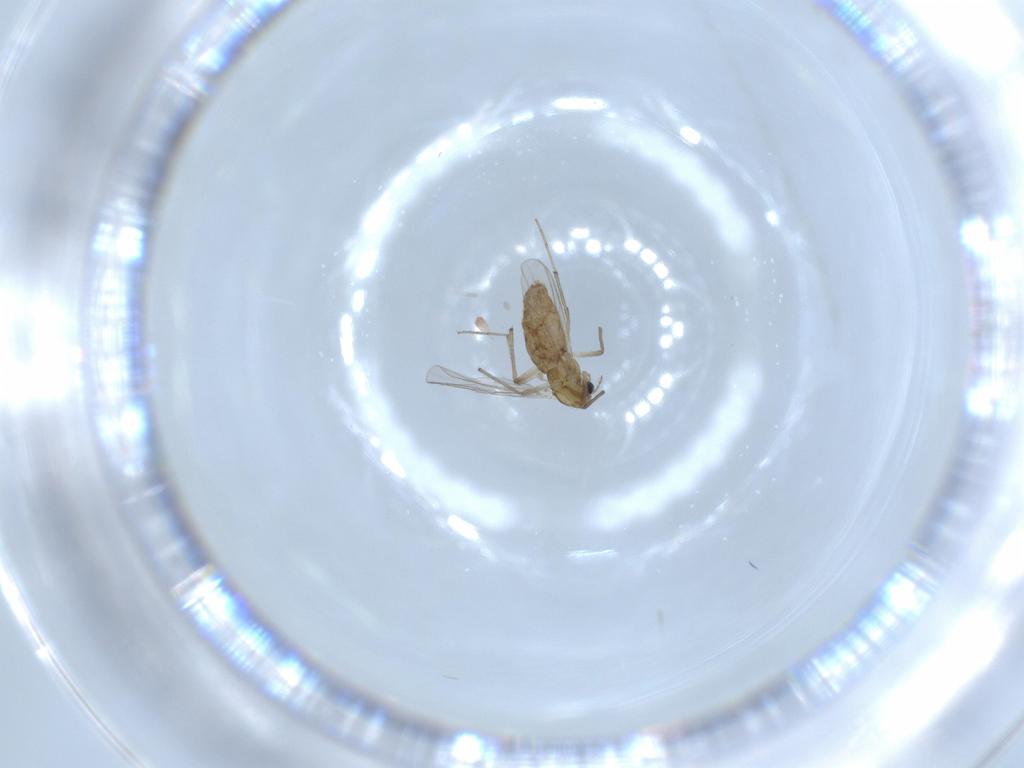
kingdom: Animalia
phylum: Arthropoda
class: Insecta
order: Diptera
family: Chironomidae
